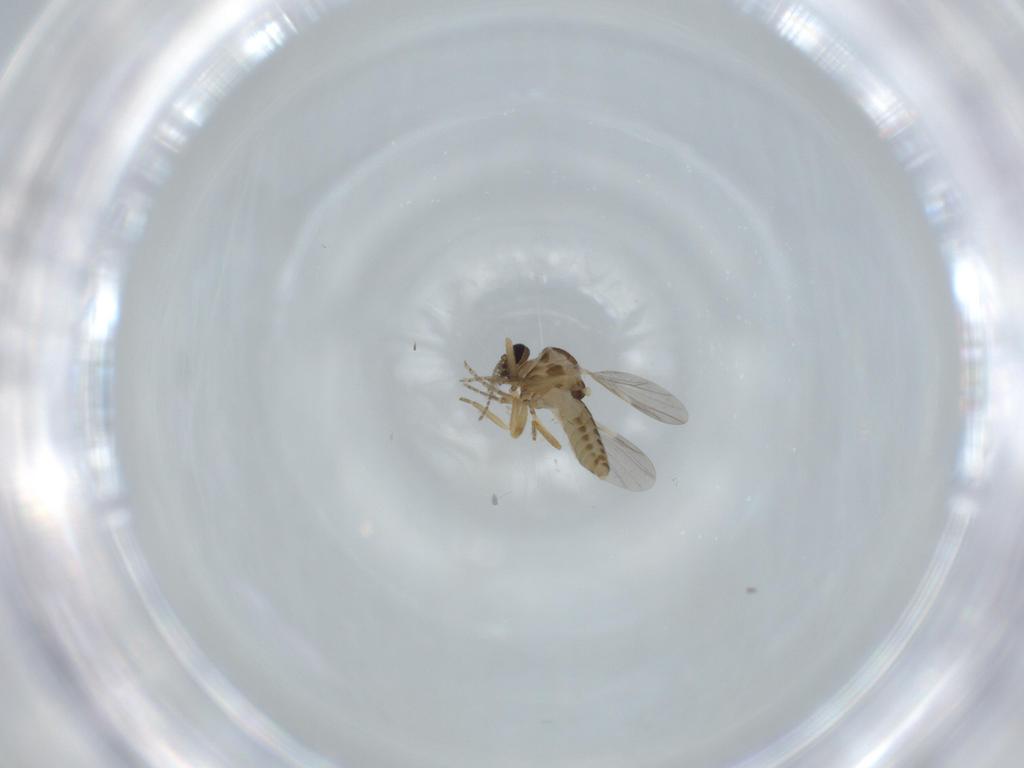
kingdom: Animalia
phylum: Arthropoda
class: Insecta
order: Diptera
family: Ceratopogonidae
